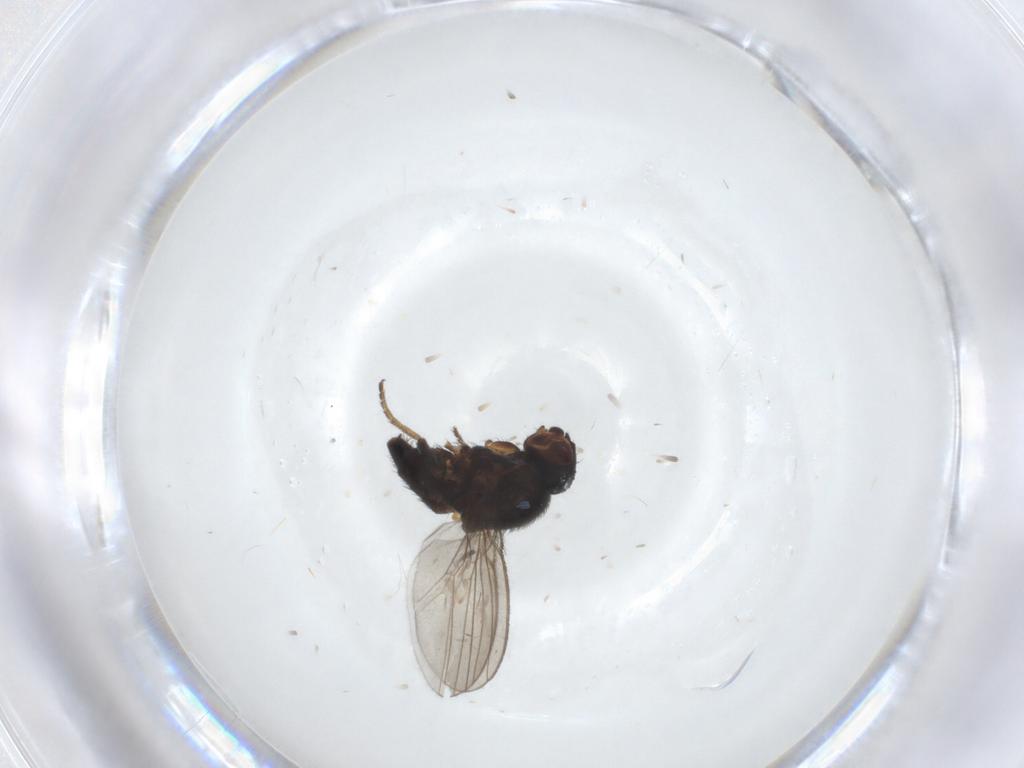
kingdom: Animalia
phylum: Arthropoda
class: Insecta
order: Diptera
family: Milichiidae
